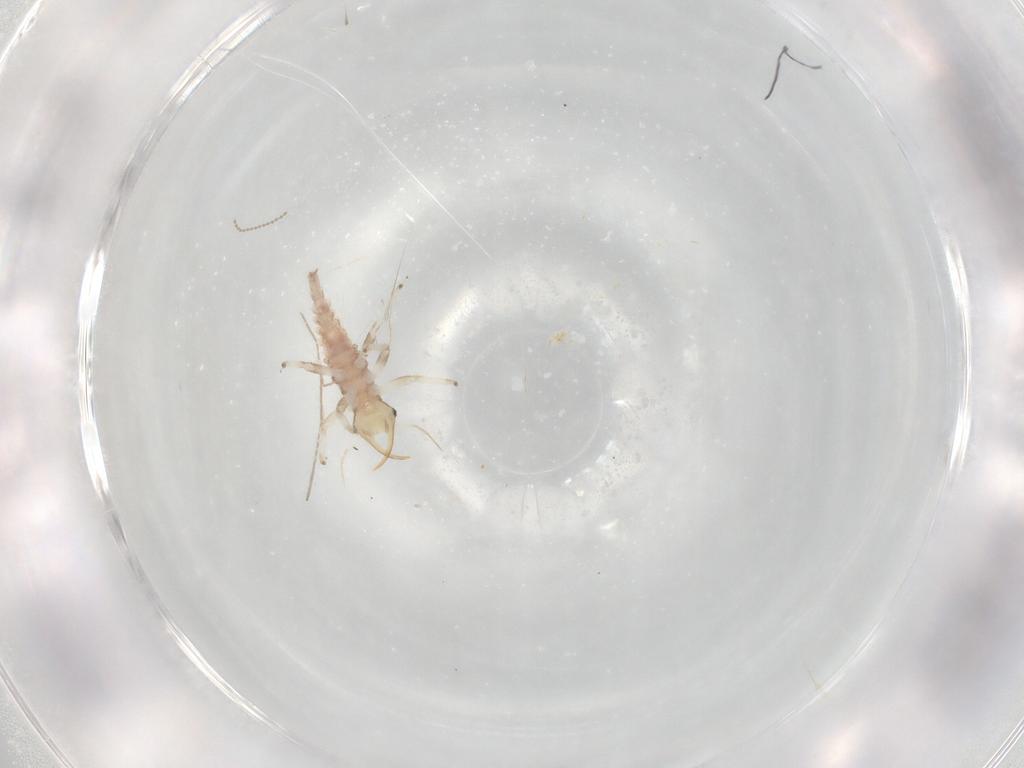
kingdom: Animalia
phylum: Arthropoda
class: Insecta
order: Neuroptera
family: Chrysopidae
